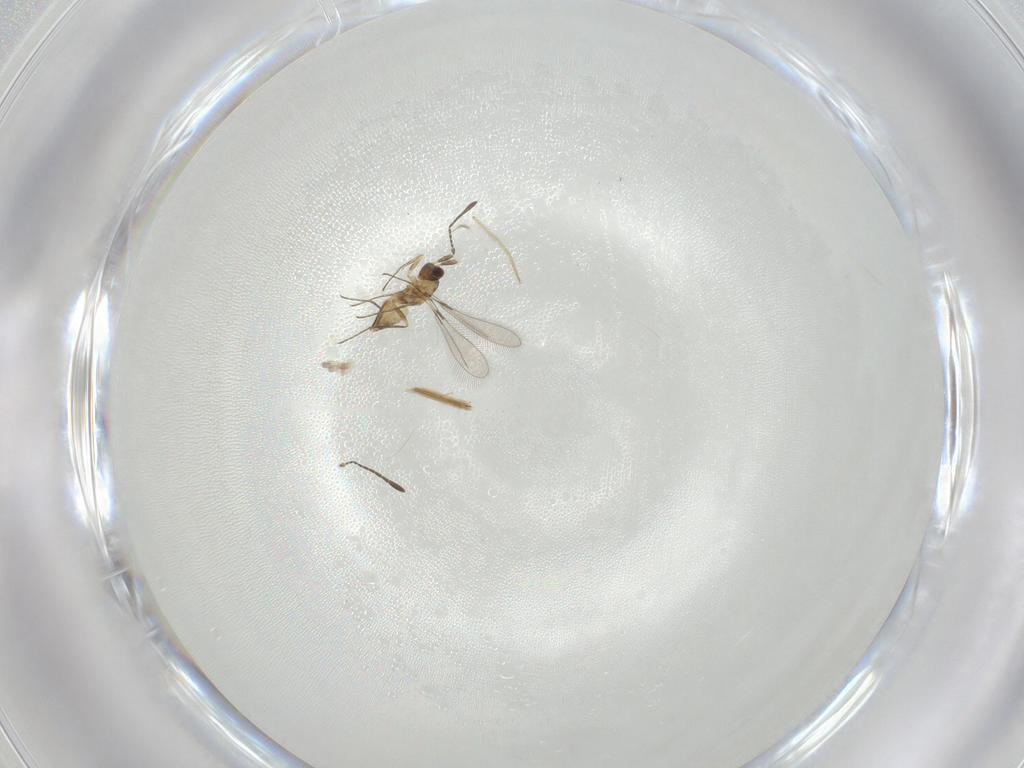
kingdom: Animalia
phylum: Arthropoda
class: Insecta
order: Hymenoptera
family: Mymaridae
